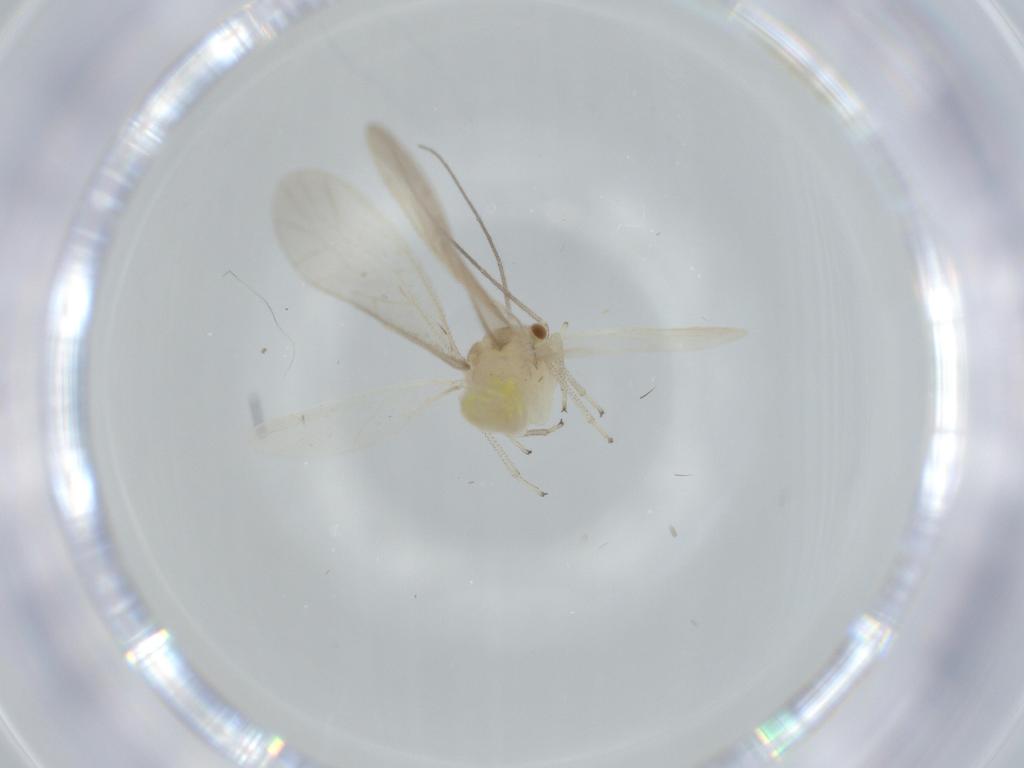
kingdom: Animalia
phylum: Arthropoda
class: Insecta
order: Psocodea
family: Caeciliusidae
